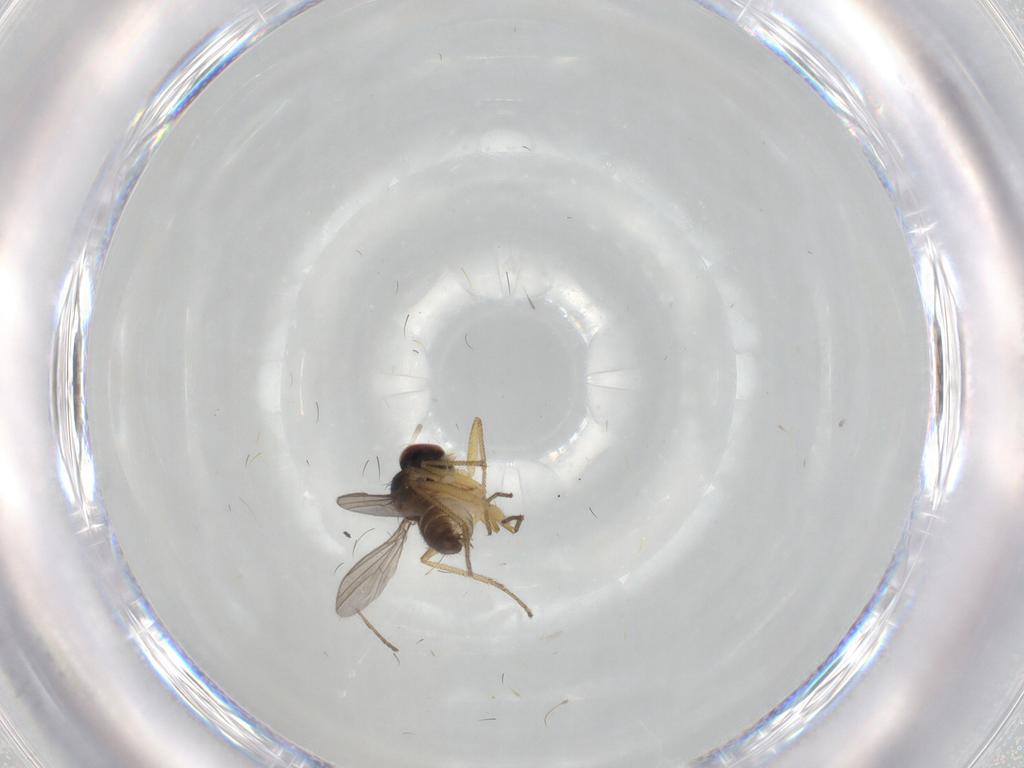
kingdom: Animalia
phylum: Arthropoda
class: Insecta
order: Diptera
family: Dolichopodidae
